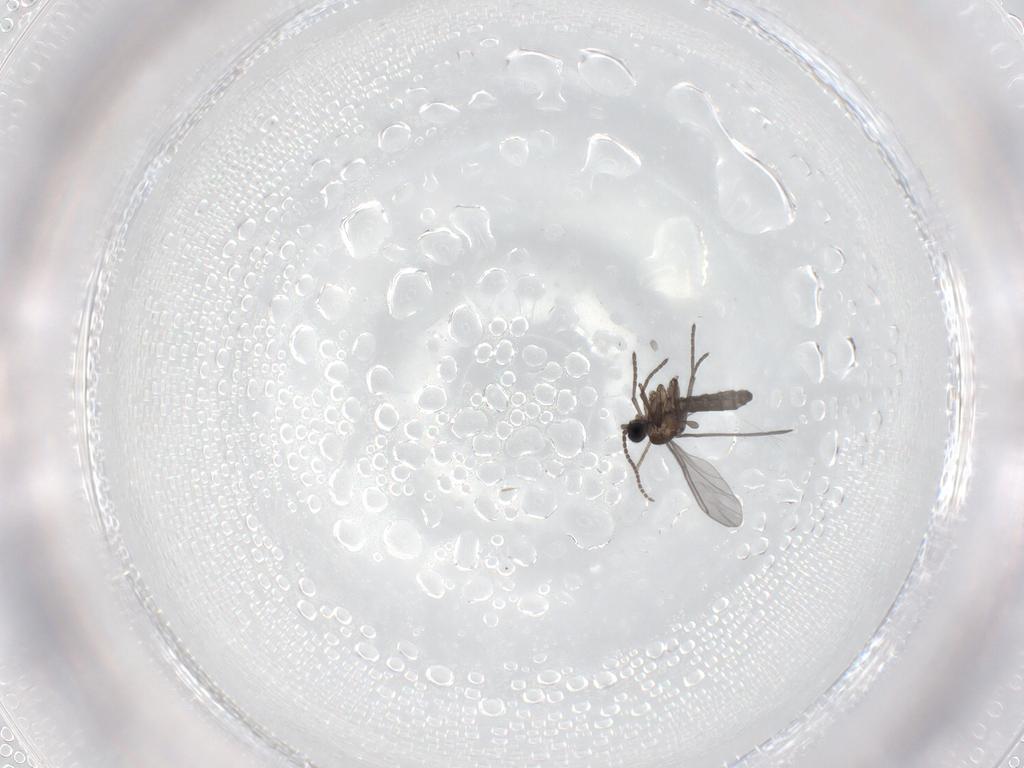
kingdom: Animalia
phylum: Arthropoda
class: Insecta
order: Diptera
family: Sciaridae
